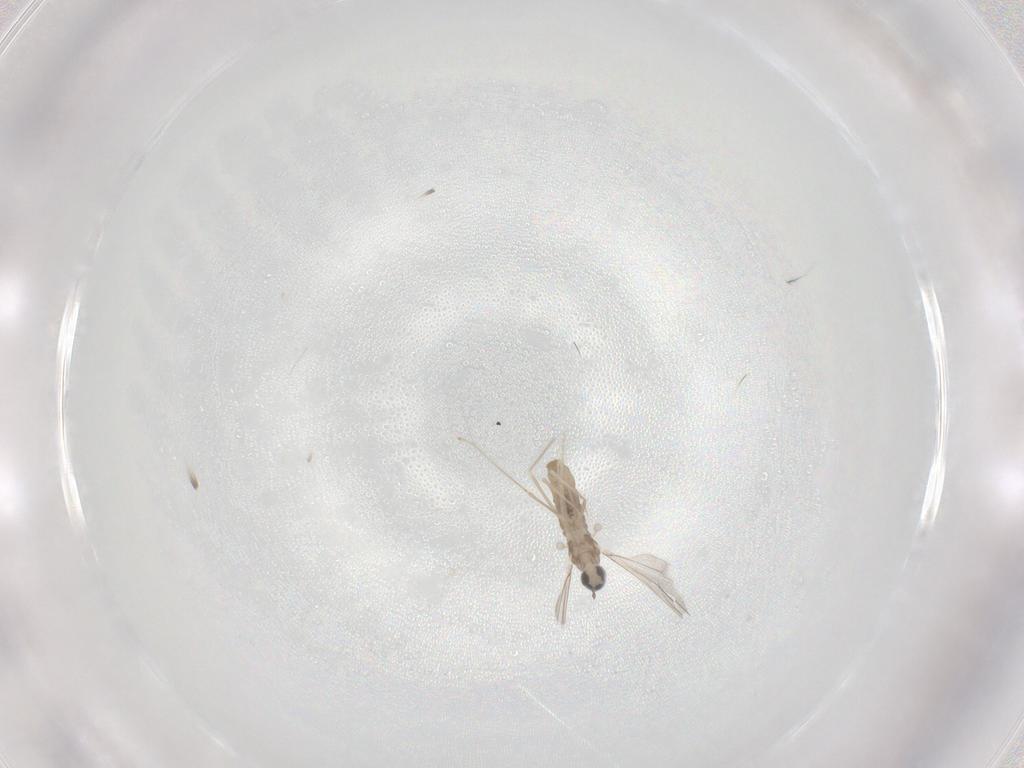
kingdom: Animalia
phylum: Arthropoda
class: Insecta
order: Diptera
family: Cecidomyiidae
